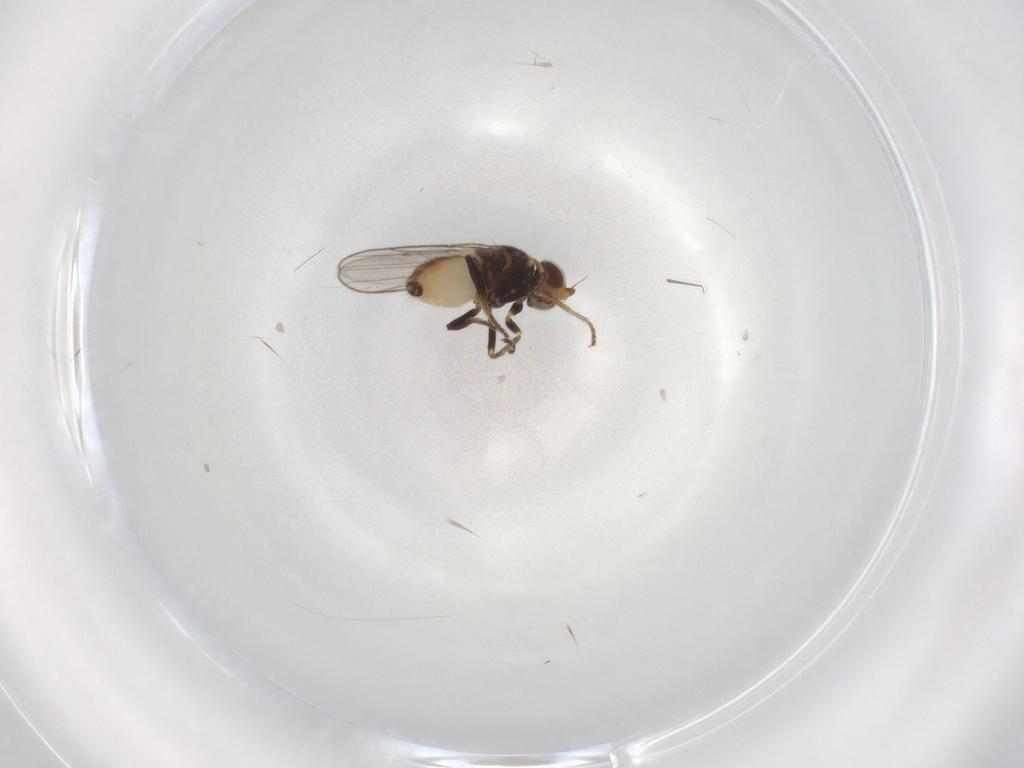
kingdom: Animalia
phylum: Arthropoda
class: Insecta
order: Diptera
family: Chloropidae
